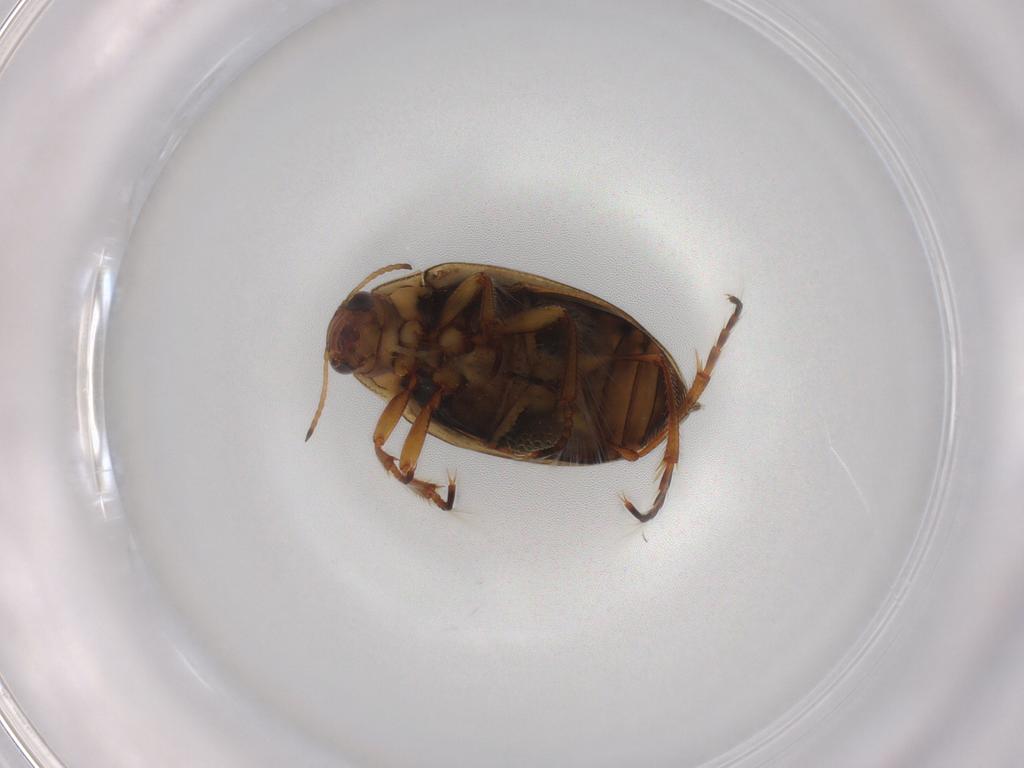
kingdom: Animalia
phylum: Arthropoda
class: Insecta
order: Coleoptera
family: Haliplidae
